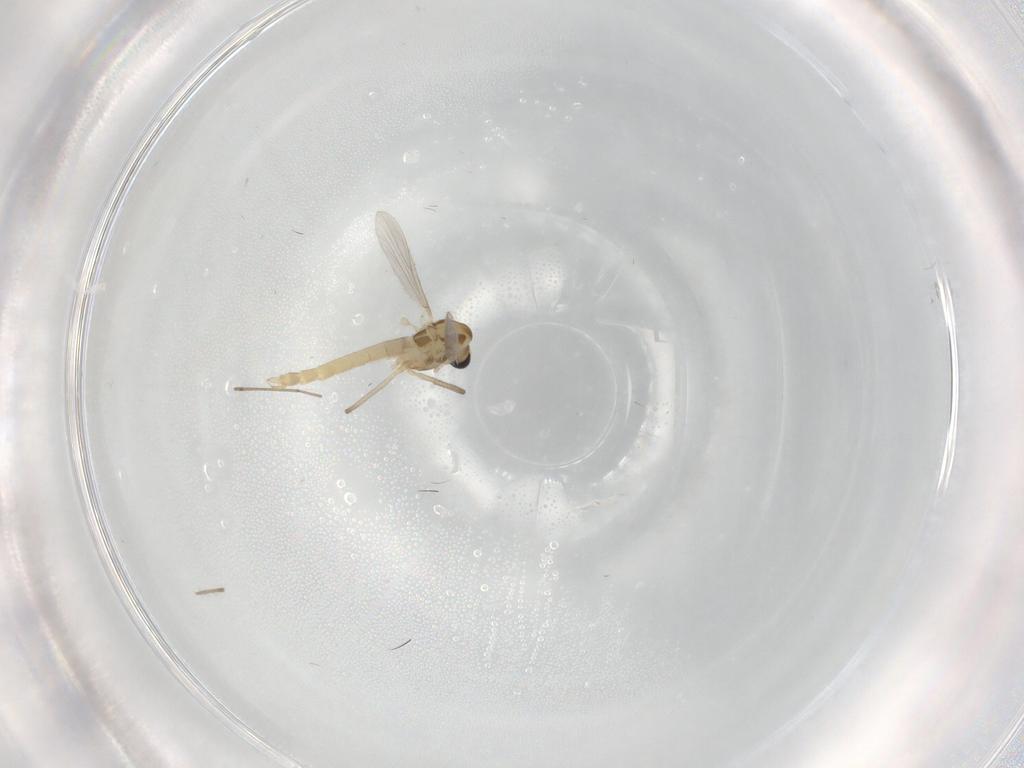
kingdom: Animalia
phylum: Arthropoda
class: Insecta
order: Diptera
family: Cecidomyiidae
